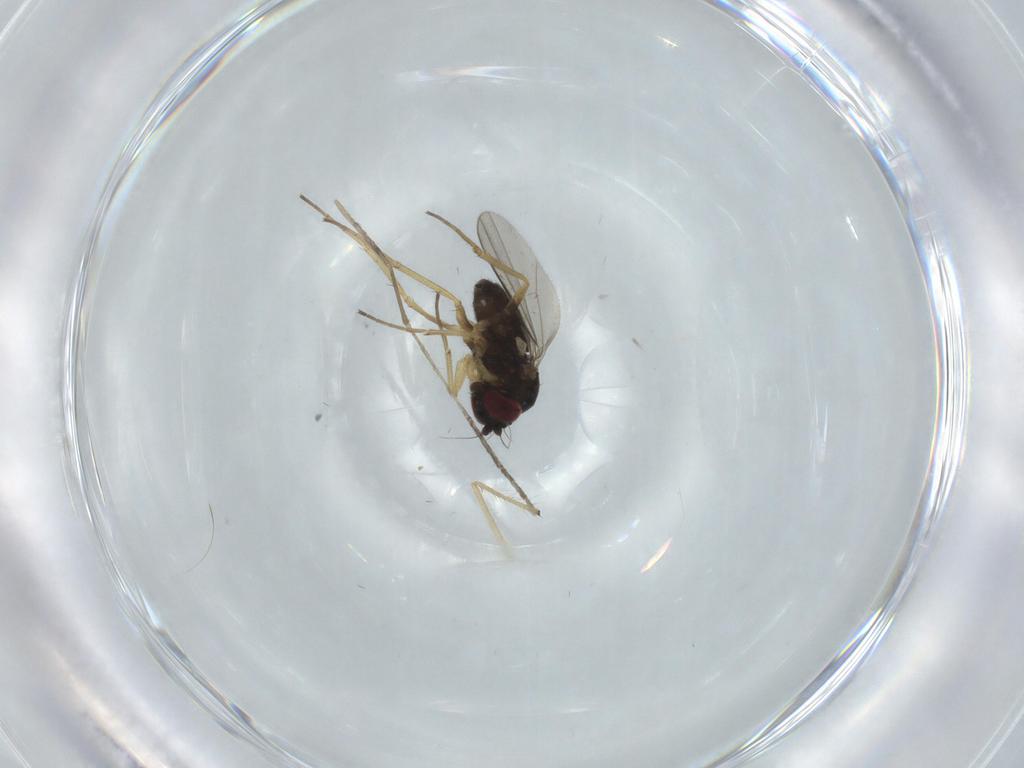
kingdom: Animalia
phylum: Arthropoda
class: Insecta
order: Diptera
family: Dolichopodidae
